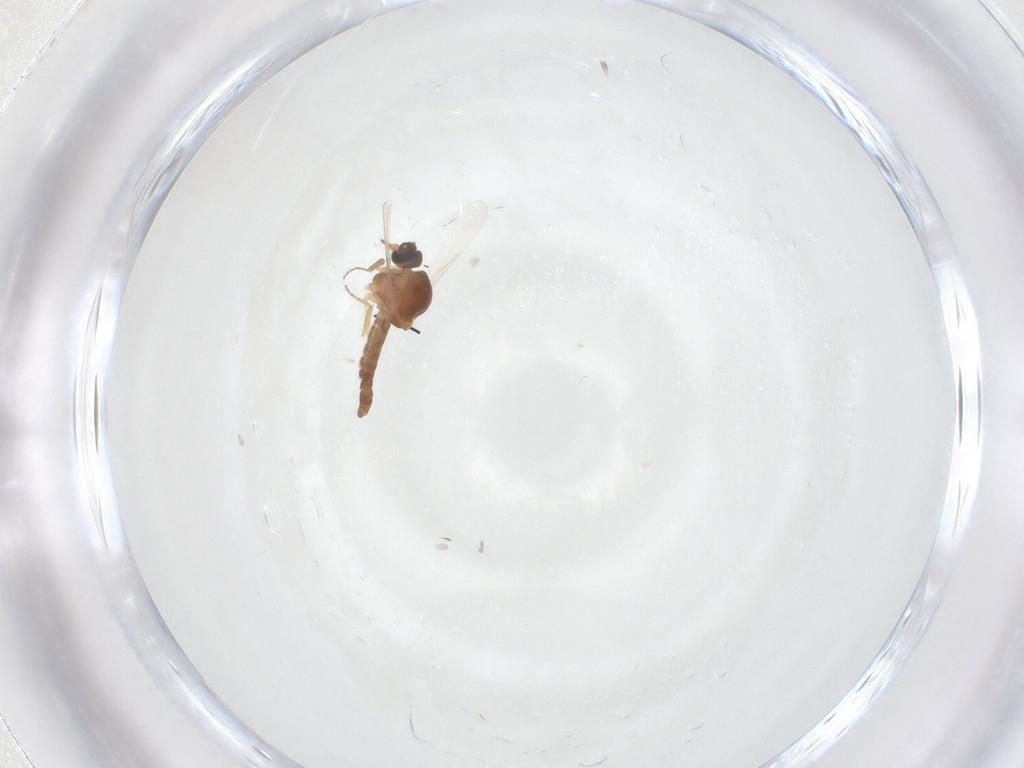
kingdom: Animalia
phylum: Arthropoda
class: Insecta
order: Diptera
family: Ceratopogonidae
